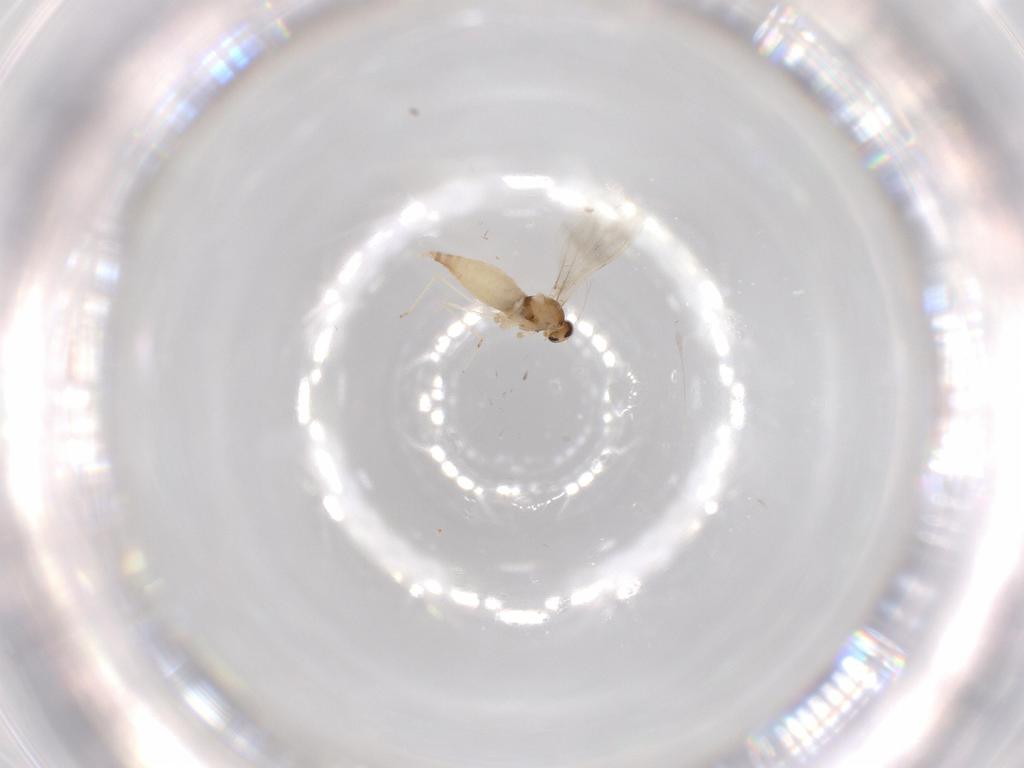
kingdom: Animalia
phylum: Arthropoda
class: Insecta
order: Diptera
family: Cecidomyiidae
